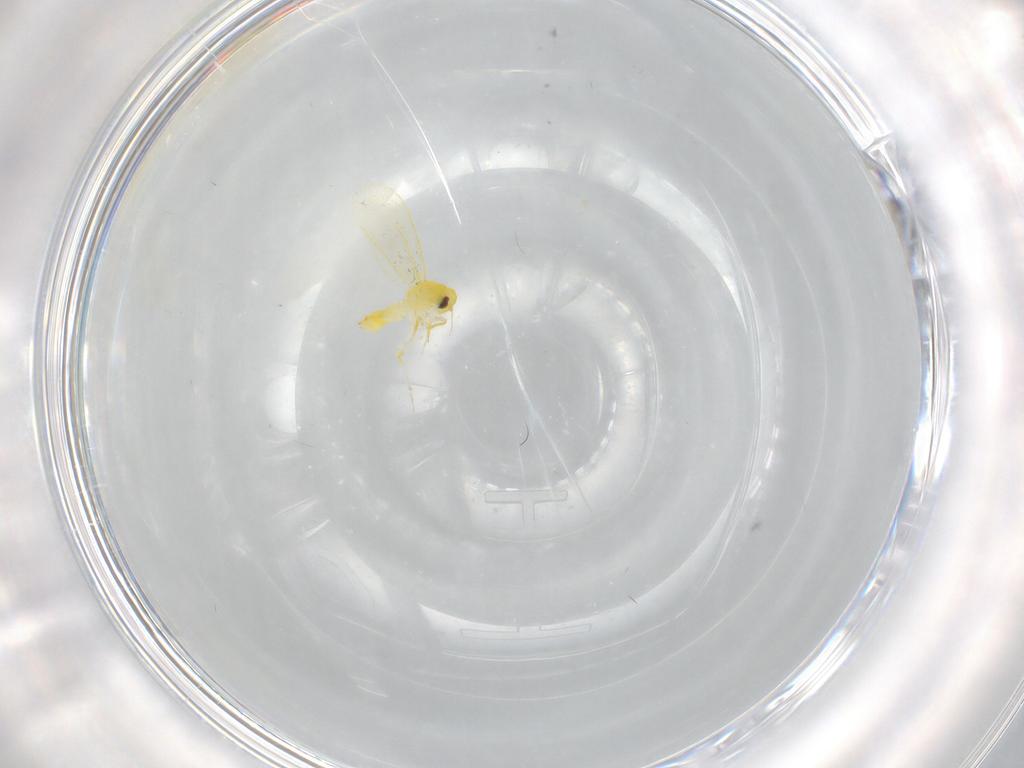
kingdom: Animalia
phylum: Arthropoda
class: Insecta
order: Hemiptera
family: Aleyrodidae
